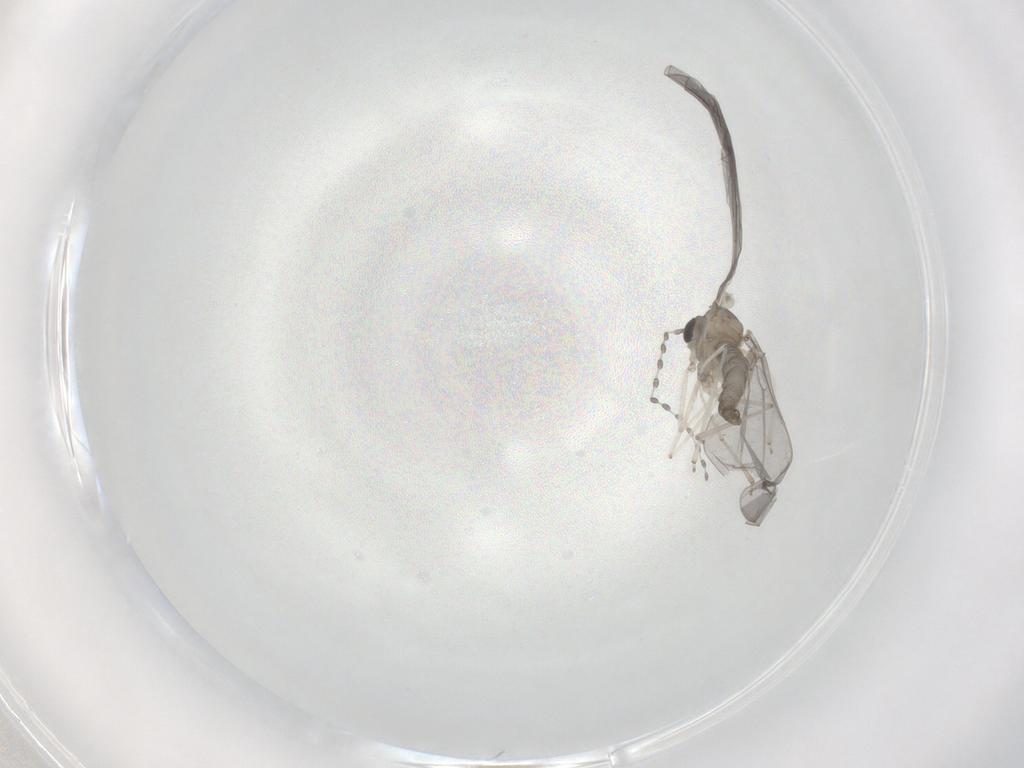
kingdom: Animalia
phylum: Arthropoda
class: Insecta
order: Diptera
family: Cecidomyiidae
